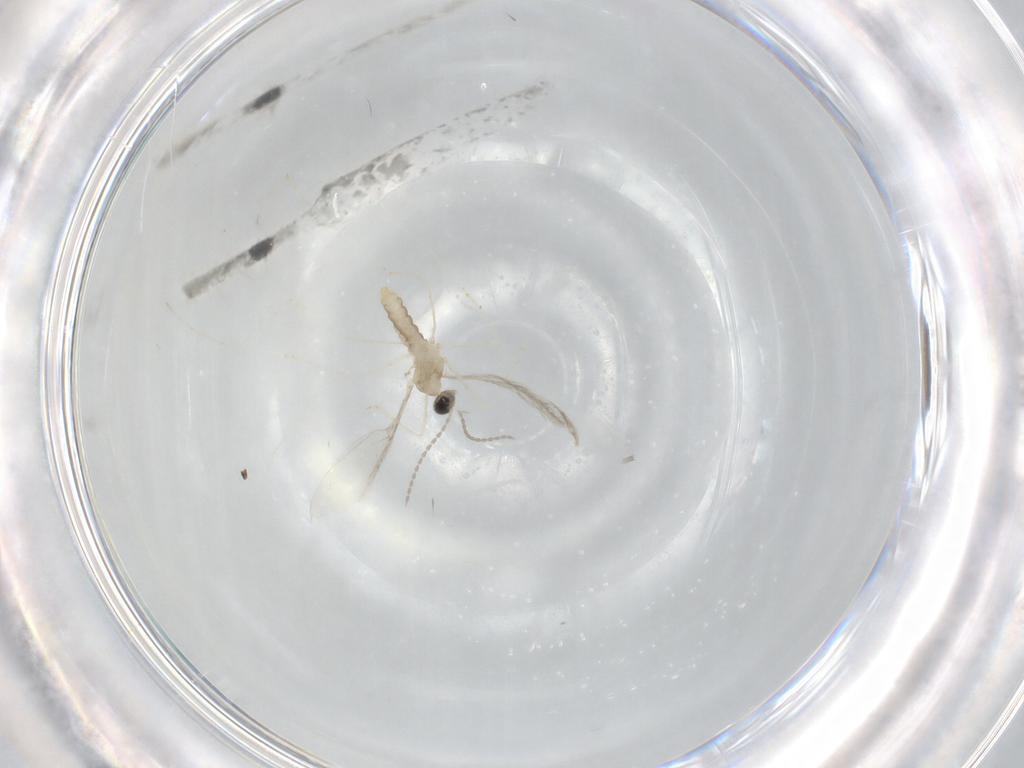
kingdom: Animalia
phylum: Arthropoda
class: Insecta
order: Diptera
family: Cecidomyiidae
